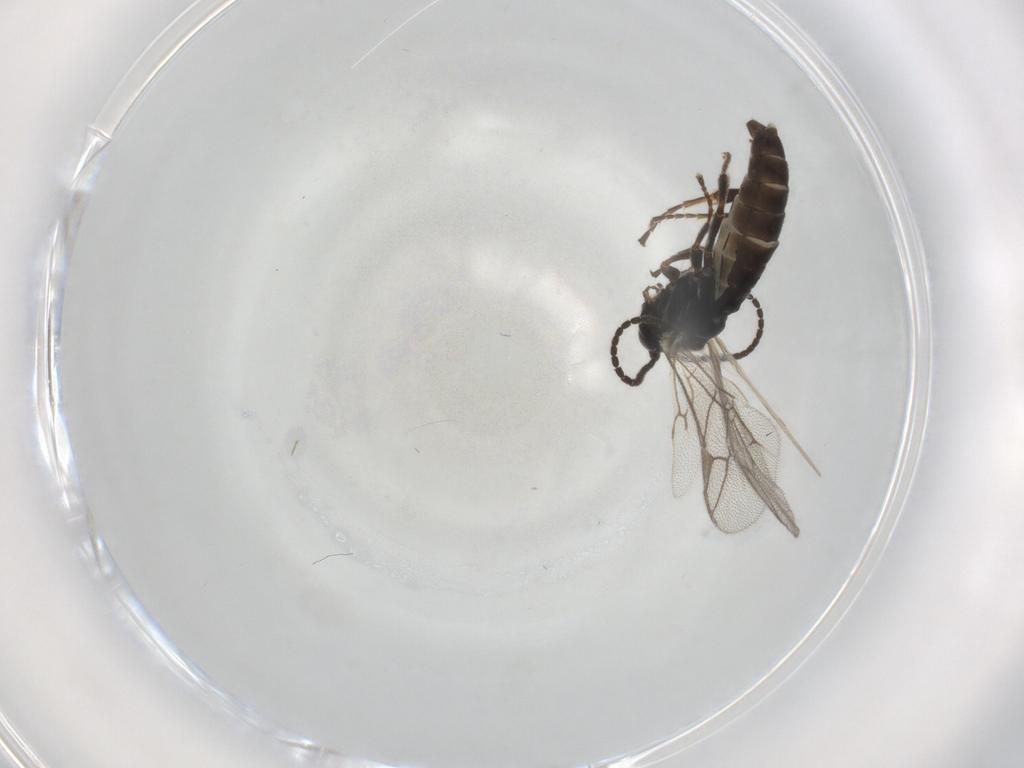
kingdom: Animalia
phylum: Arthropoda
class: Insecta
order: Hymenoptera
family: Ichneumonidae
